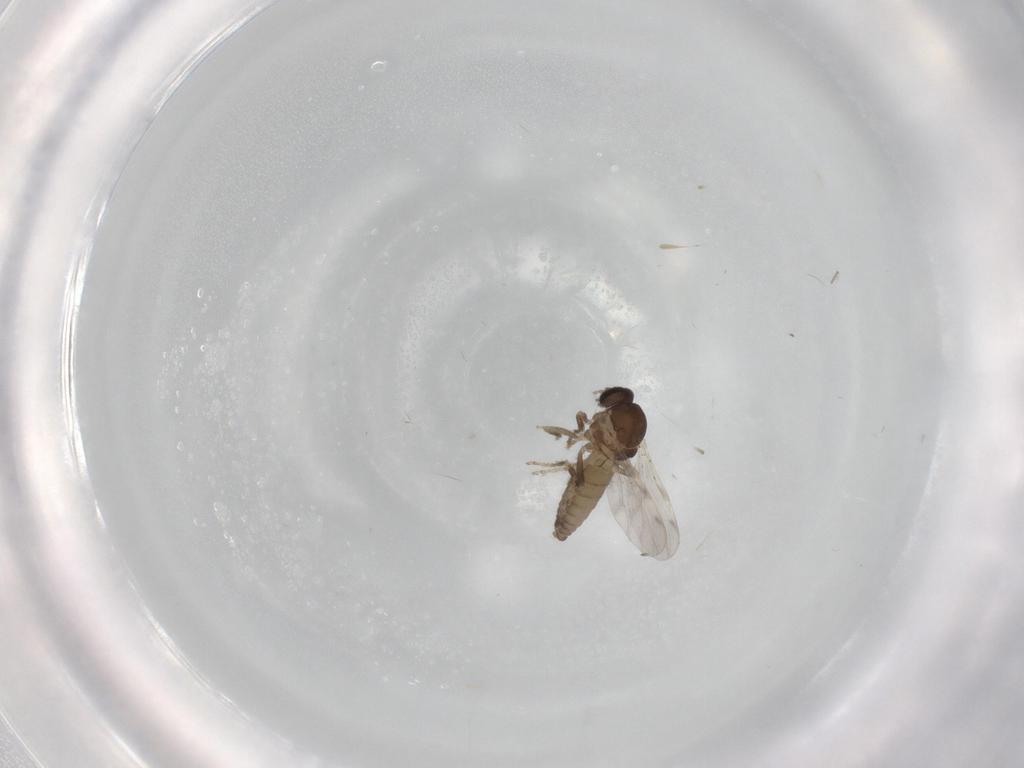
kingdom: Animalia
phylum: Arthropoda
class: Insecta
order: Diptera
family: Ceratopogonidae
